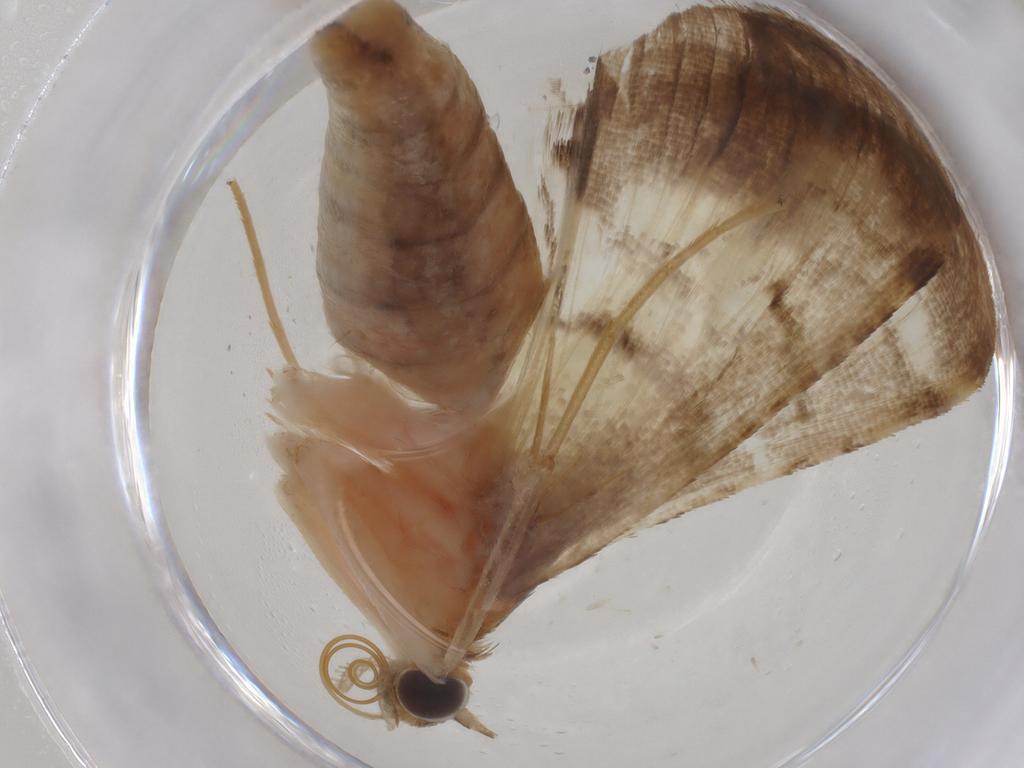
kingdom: Animalia
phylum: Arthropoda
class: Insecta
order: Lepidoptera
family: Crambidae
